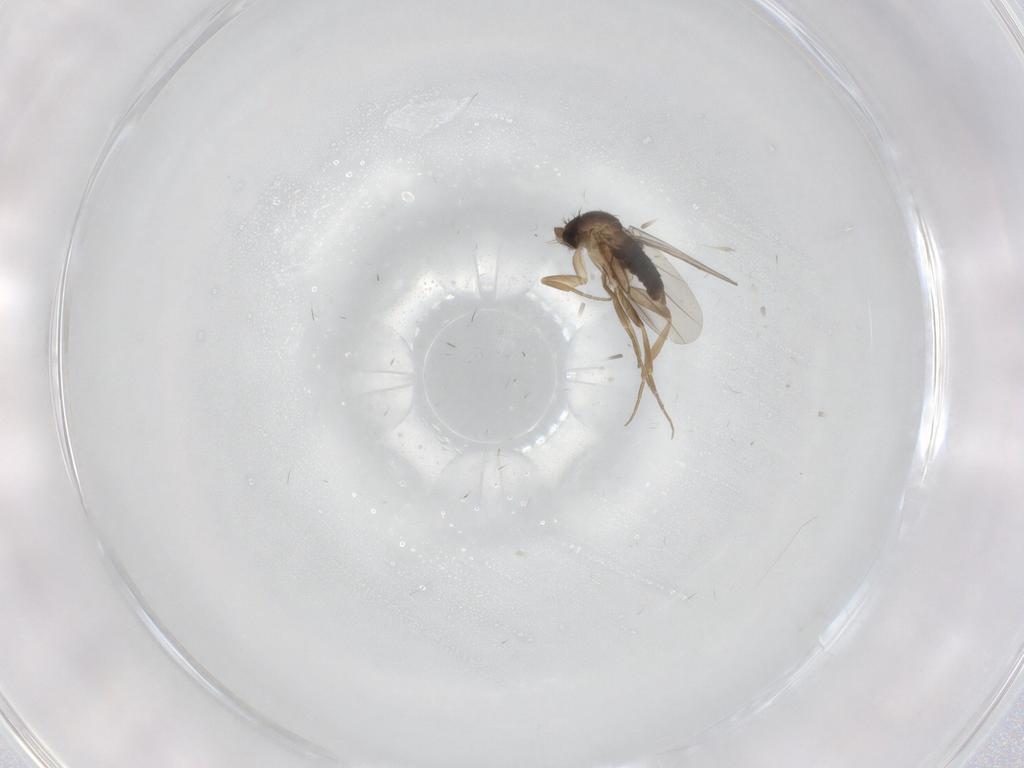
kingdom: Animalia
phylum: Arthropoda
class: Insecta
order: Diptera
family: Phoridae
